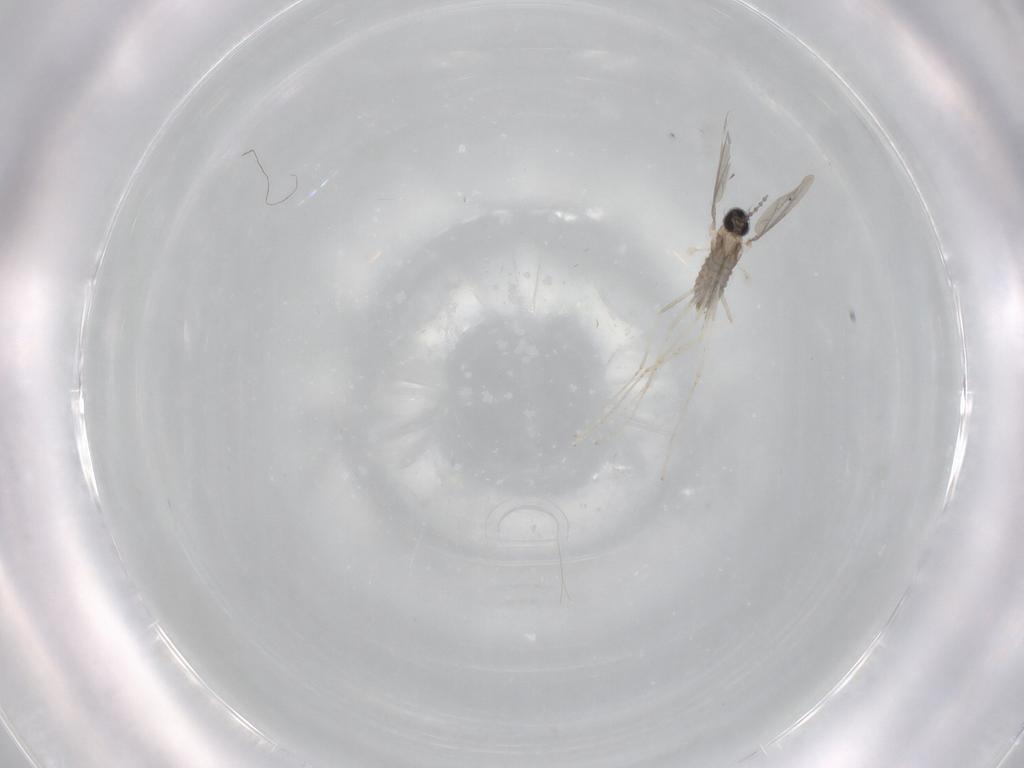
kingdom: Animalia
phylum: Arthropoda
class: Insecta
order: Diptera
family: Cecidomyiidae
